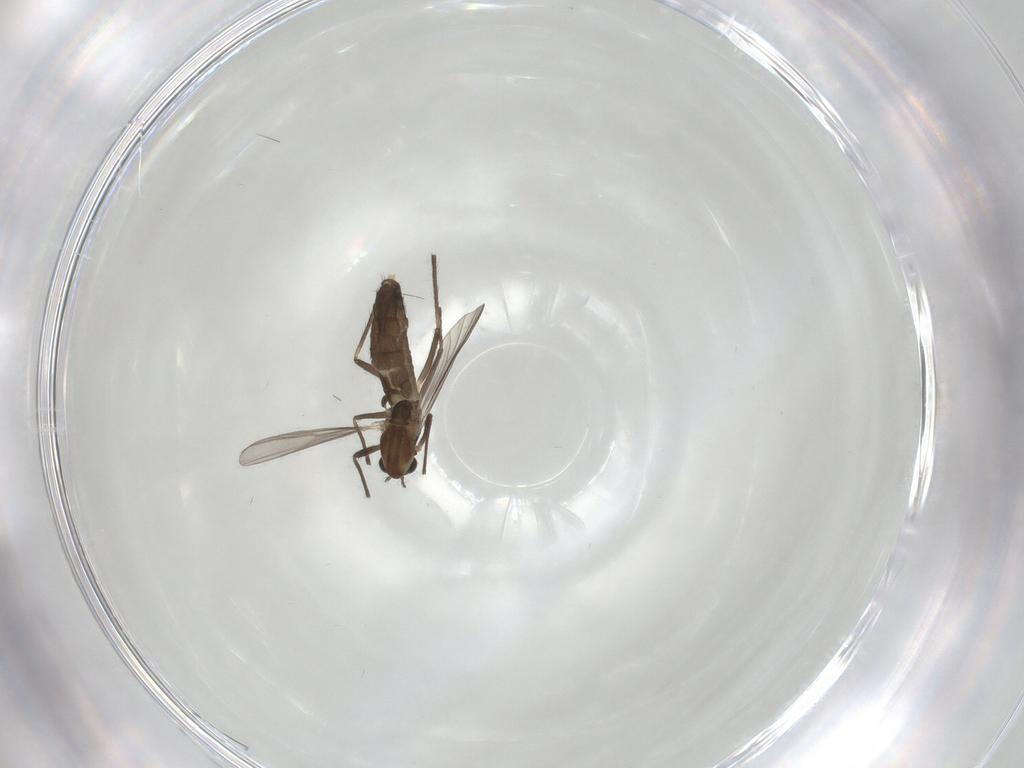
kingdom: Animalia
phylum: Arthropoda
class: Insecta
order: Diptera
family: Chironomidae
